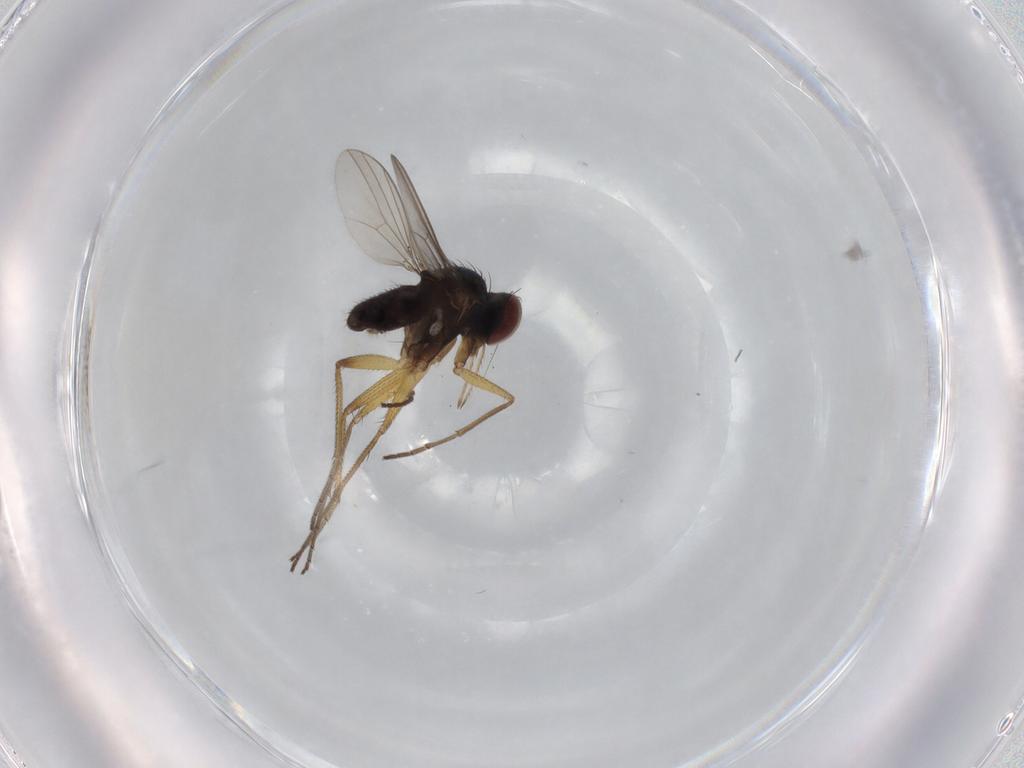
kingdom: Animalia
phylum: Arthropoda
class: Insecta
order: Diptera
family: Dolichopodidae
